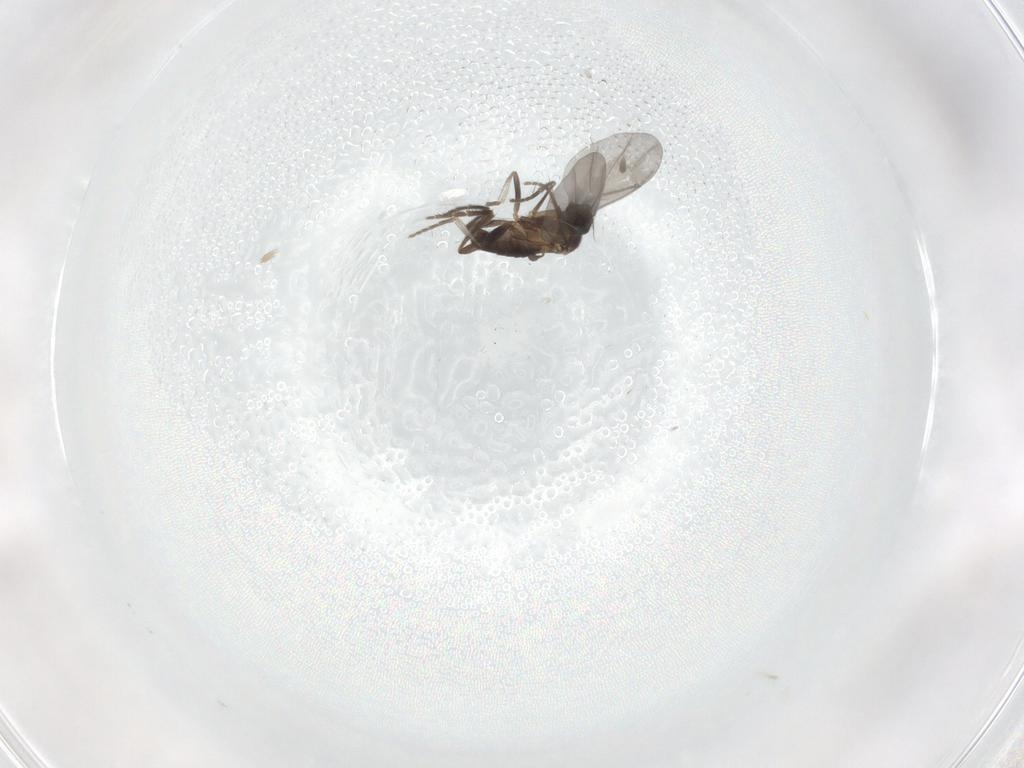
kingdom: Animalia
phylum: Arthropoda
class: Insecta
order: Diptera
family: Phoridae
